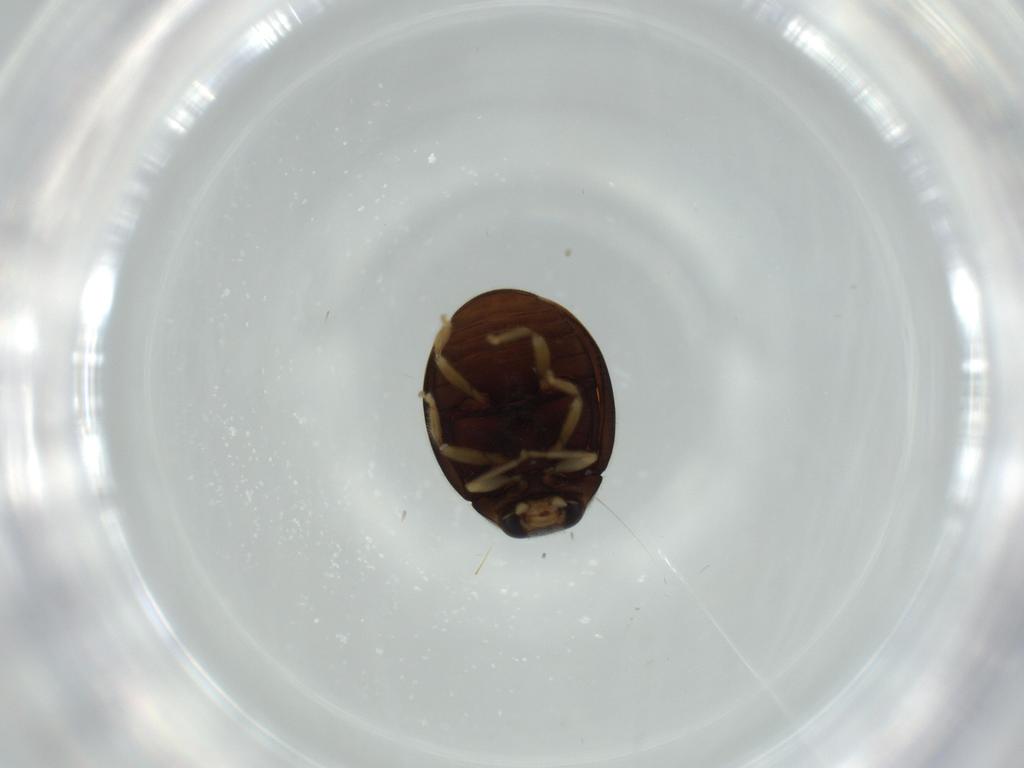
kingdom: Animalia
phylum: Arthropoda
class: Insecta
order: Coleoptera
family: Coccinellidae
